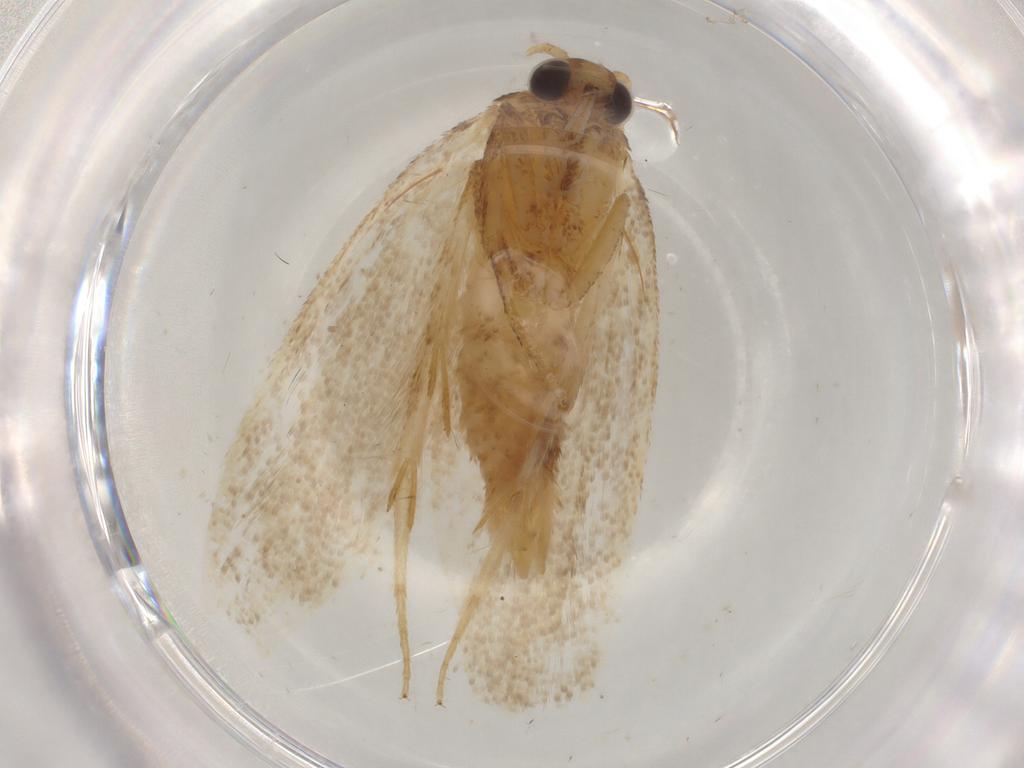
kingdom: Animalia
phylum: Arthropoda
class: Insecta
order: Lepidoptera
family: Autostichidae
